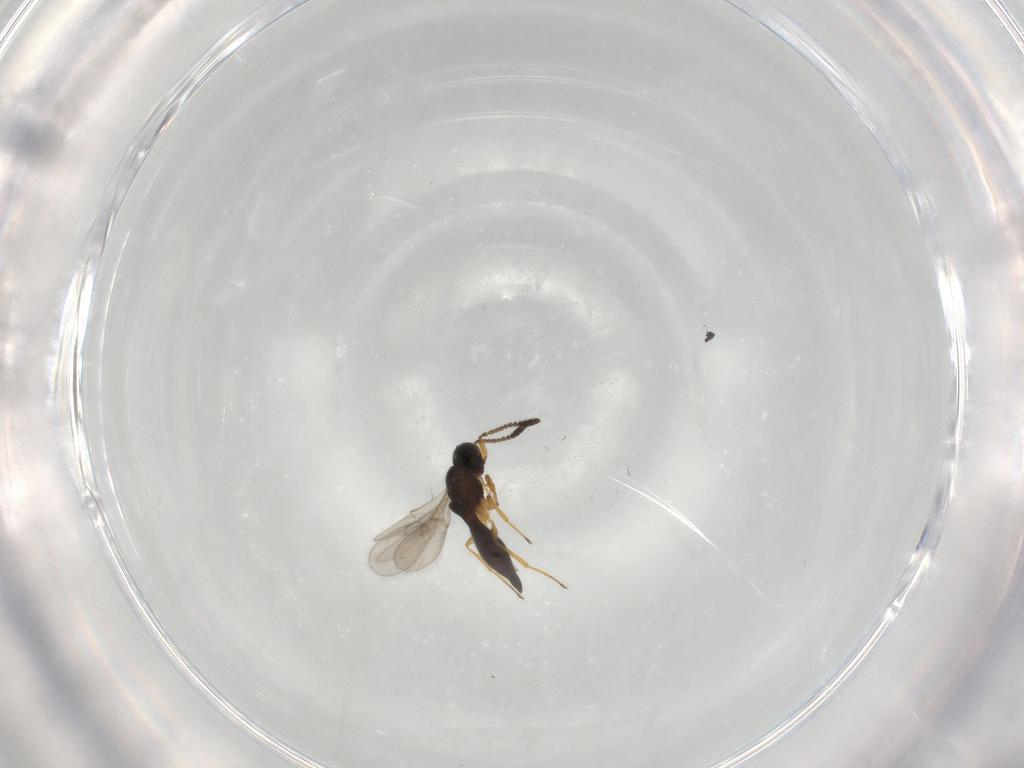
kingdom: Animalia
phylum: Arthropoda
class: Insecta
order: Hymenoptera
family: Scelionidae
